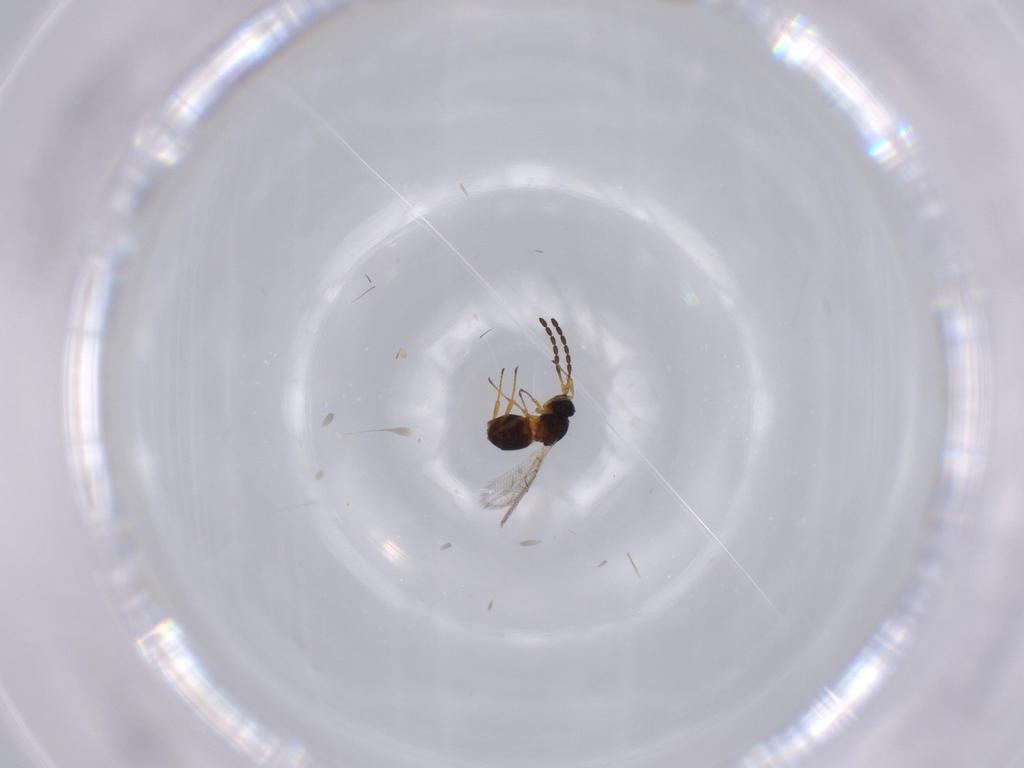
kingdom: Animalia
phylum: Arthropoda
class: Insecta
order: Hymenoptera
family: Figitidae
